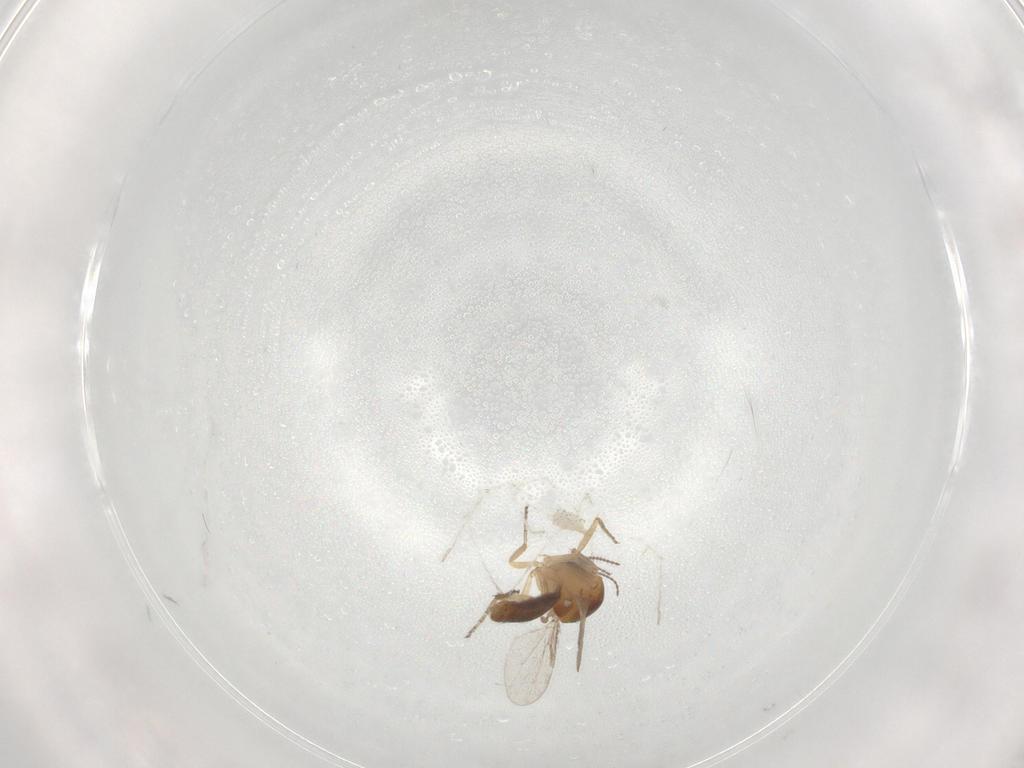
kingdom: Animalia
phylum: Arthropoda
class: Insecta
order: Diptera
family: Ceratopogonidae
